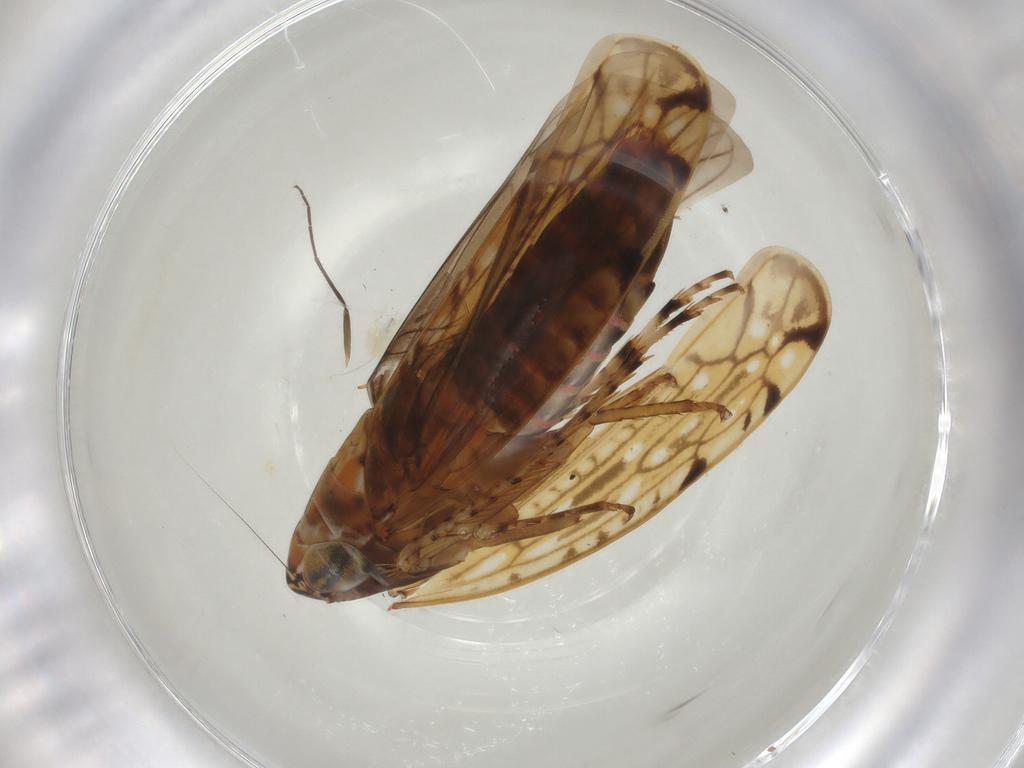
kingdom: Animalia
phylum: Arthropoda
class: Insecta
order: Hemiptera
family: Cicadellidae
